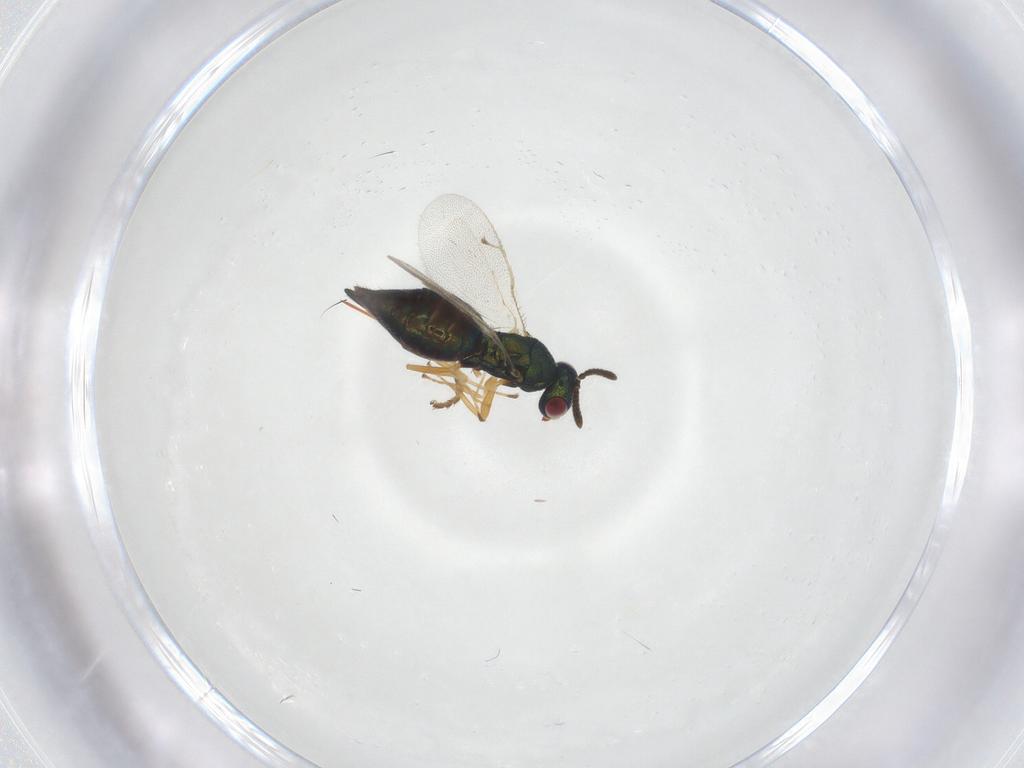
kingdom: Animalia
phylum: Arthropoda
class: Insecta
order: Hymenoptera
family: Pteromalidae
